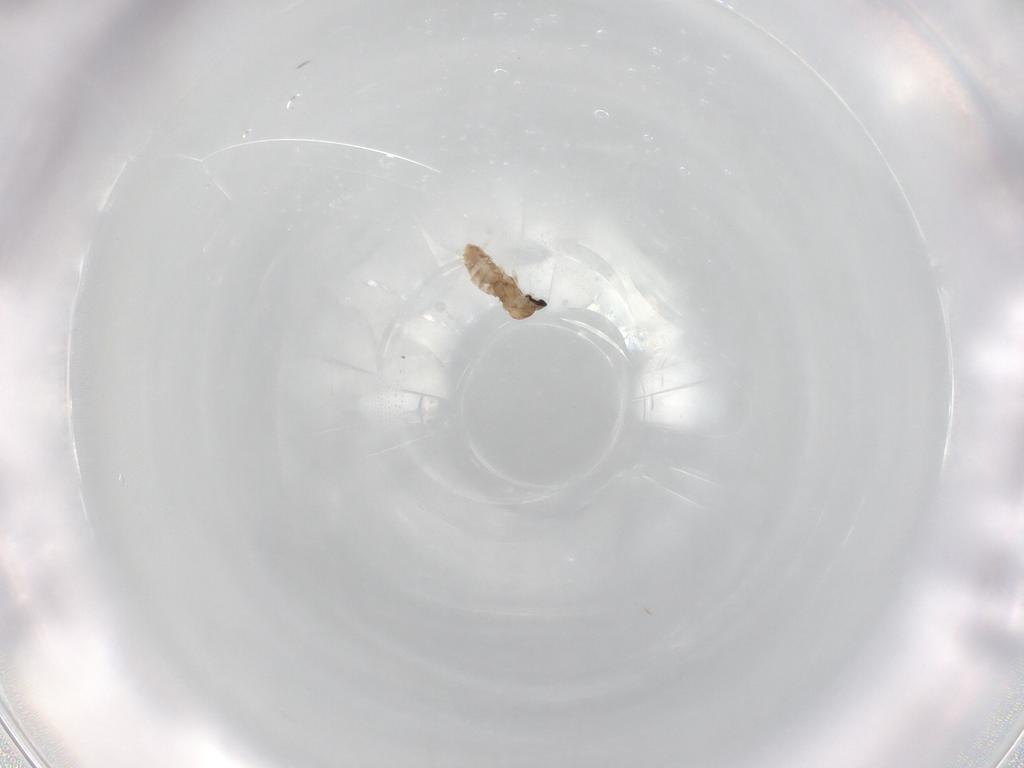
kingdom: Animalia
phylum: Arthropoda
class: Insecta
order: Diptera
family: Cecidomyiidae
